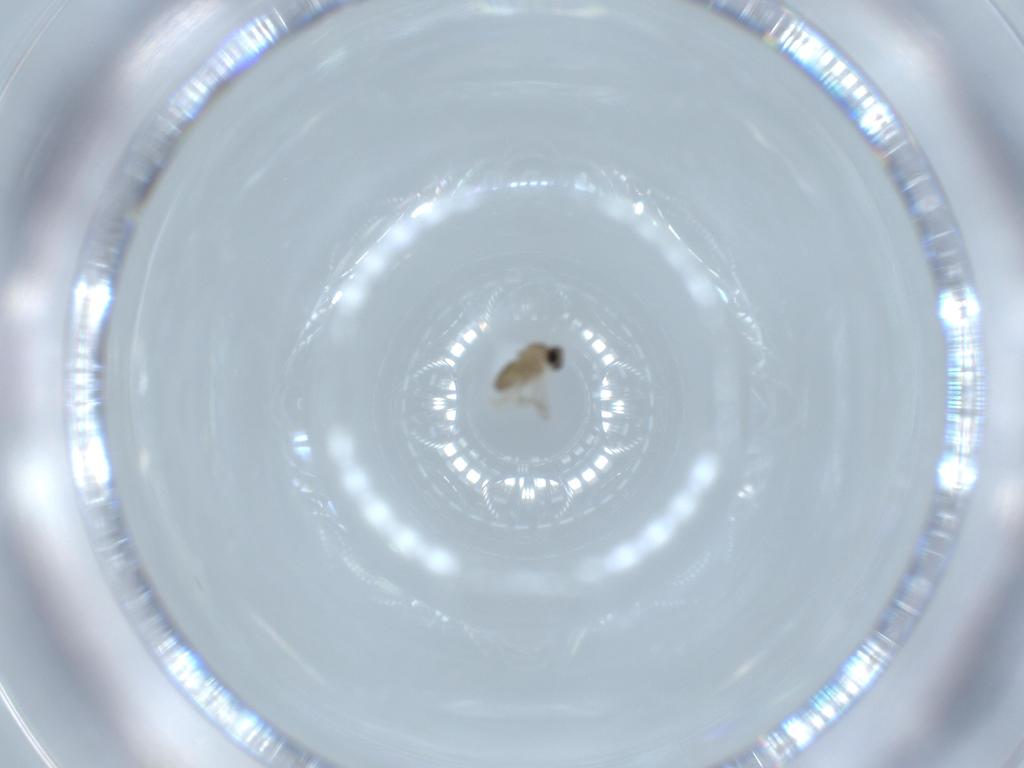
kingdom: Animalia
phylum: Arthropoda
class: Insecta
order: Diptera
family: Cecidomyiidae
